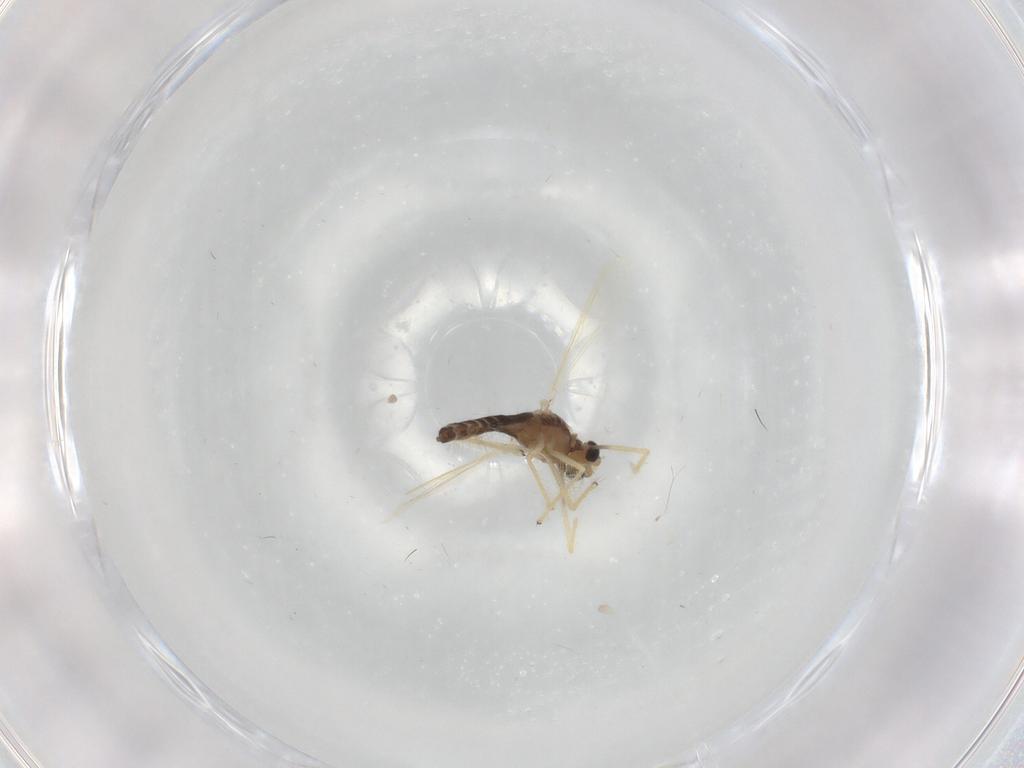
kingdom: Animalia
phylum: Arthropoda
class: Insecta
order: Diptera
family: Chironomidae
